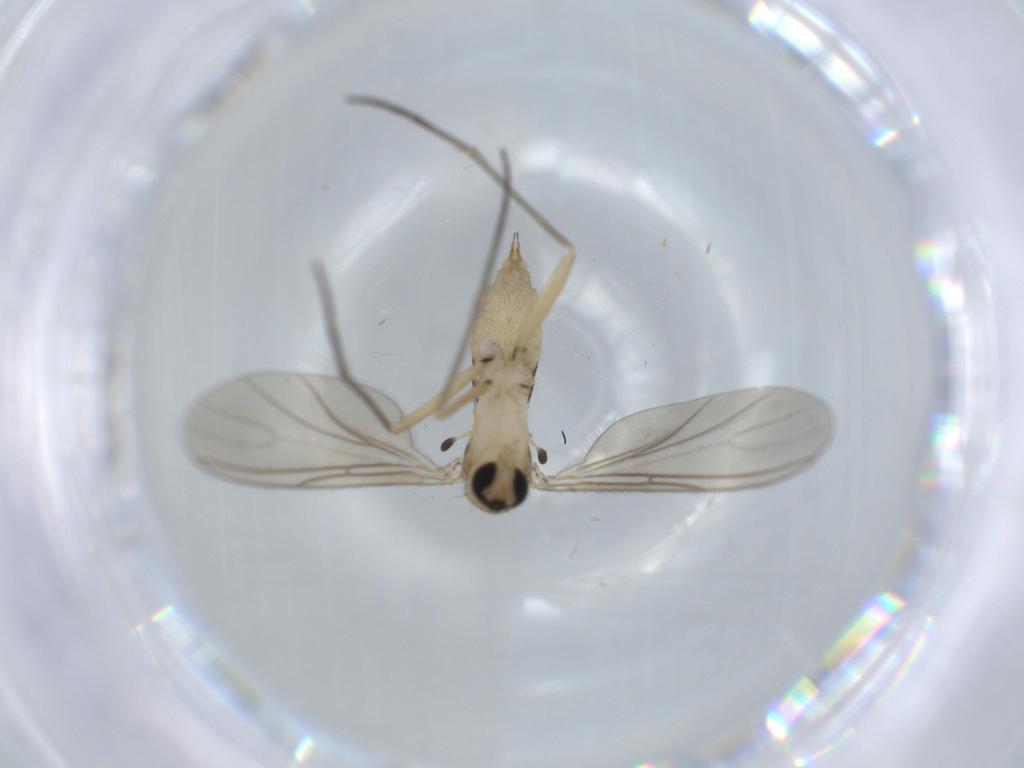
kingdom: Animalia
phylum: Arthropoda
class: Insecta
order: Diptera
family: Sciaridae
